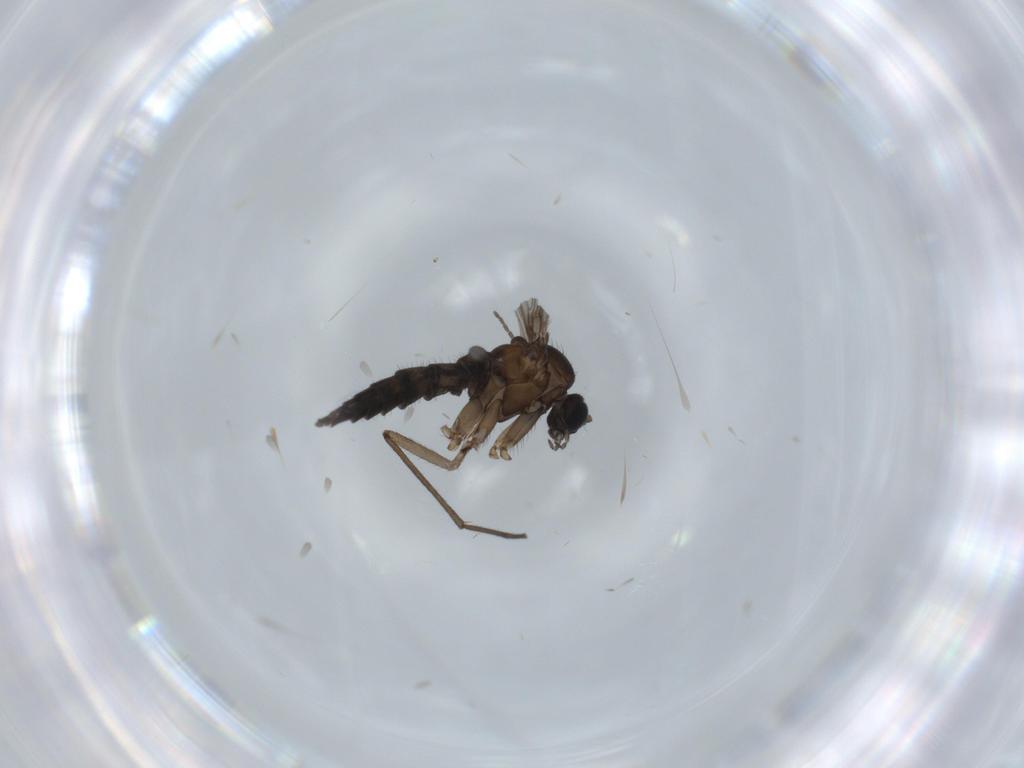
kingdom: Animalia
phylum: Arthropoda
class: Insecta
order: Diptera
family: Sciaridae
